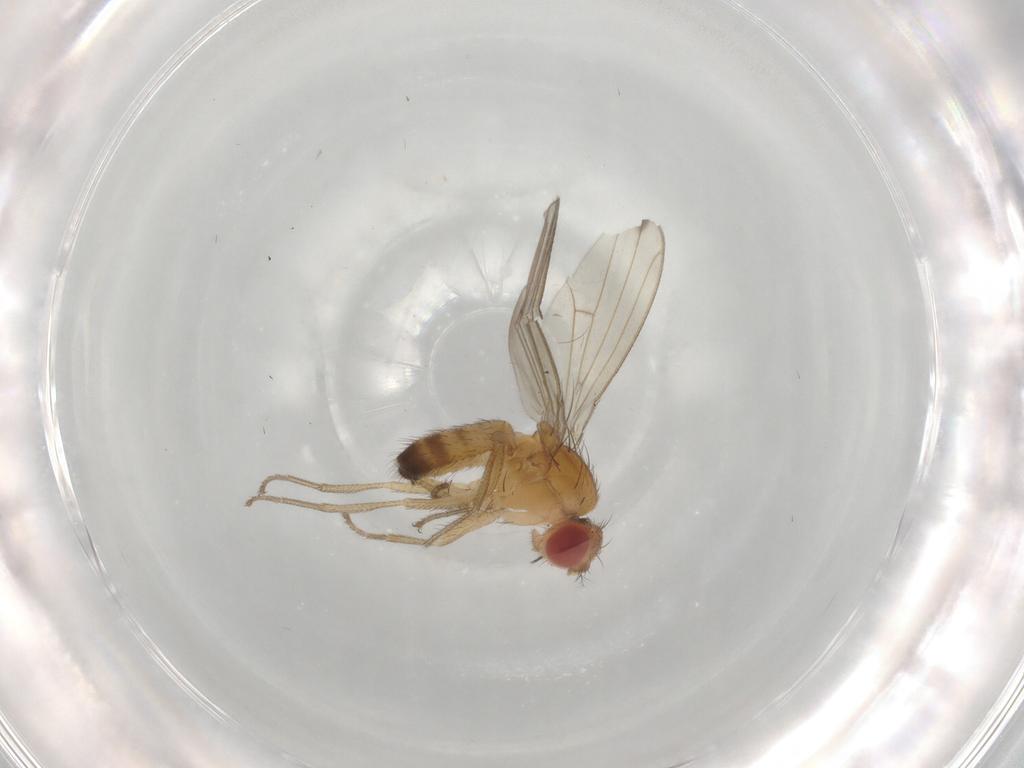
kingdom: Animalia
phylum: Arthropoda
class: Insecta
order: Diptera
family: Drosophilidae
